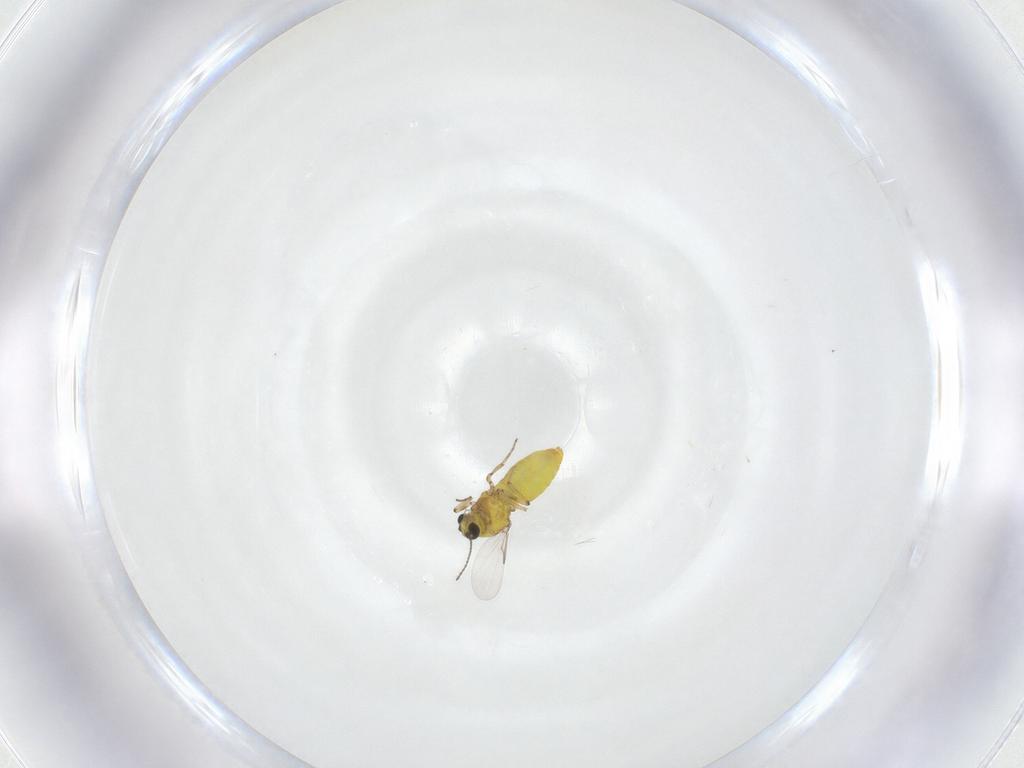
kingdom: Animalia
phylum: Arthropoda
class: Insecta
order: Diptera
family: Ceratopogonidae
